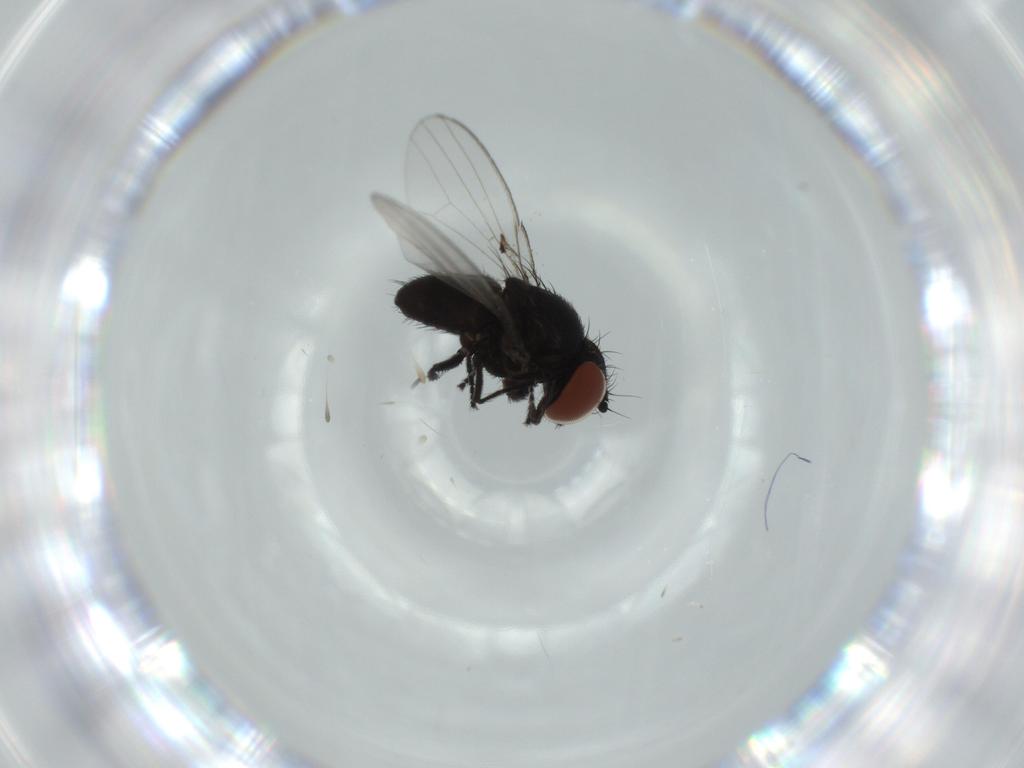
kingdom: Animalia
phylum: Arthropoda
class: Insecta
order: Diptera
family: Milichiidae
